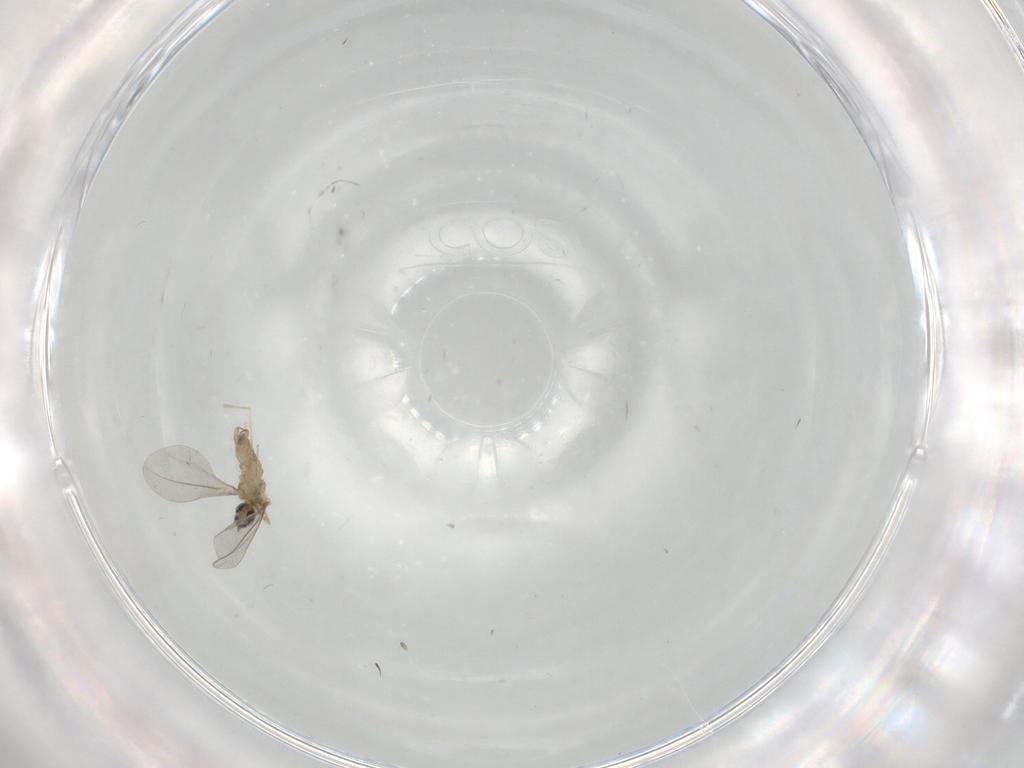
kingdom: Animalia
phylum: Arthropoda
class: Insecta
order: Diptera
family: Cecidomyiidae
